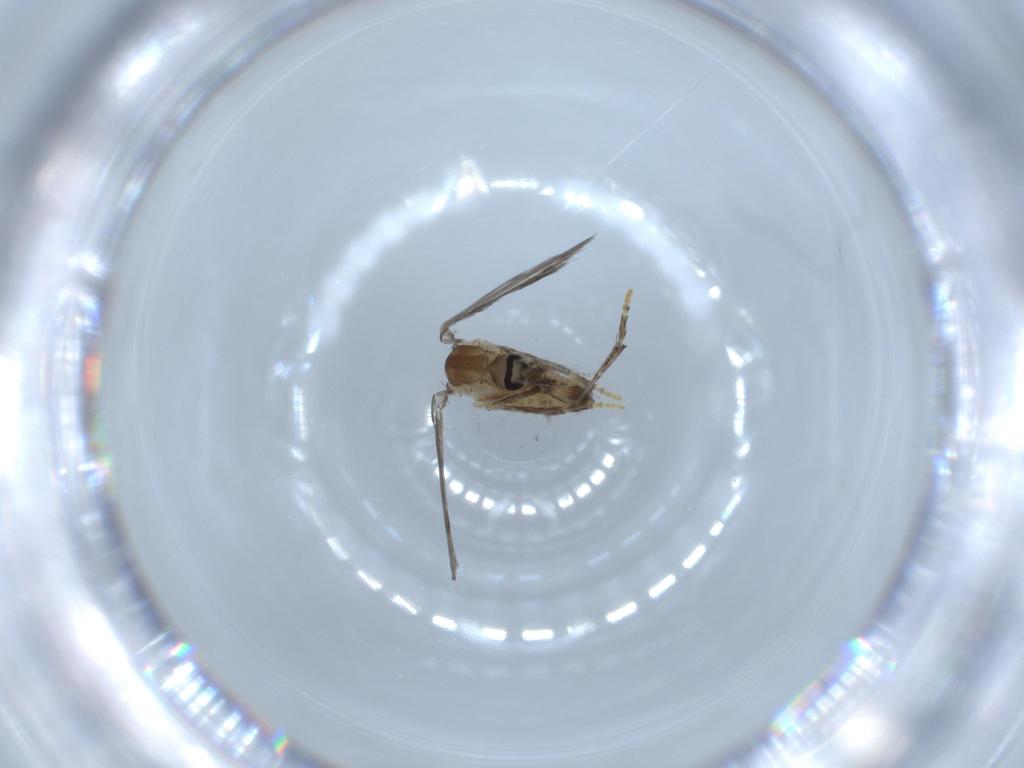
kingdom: Animalia
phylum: Arthropoda
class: Insecta
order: Diptera
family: Psychodidae
